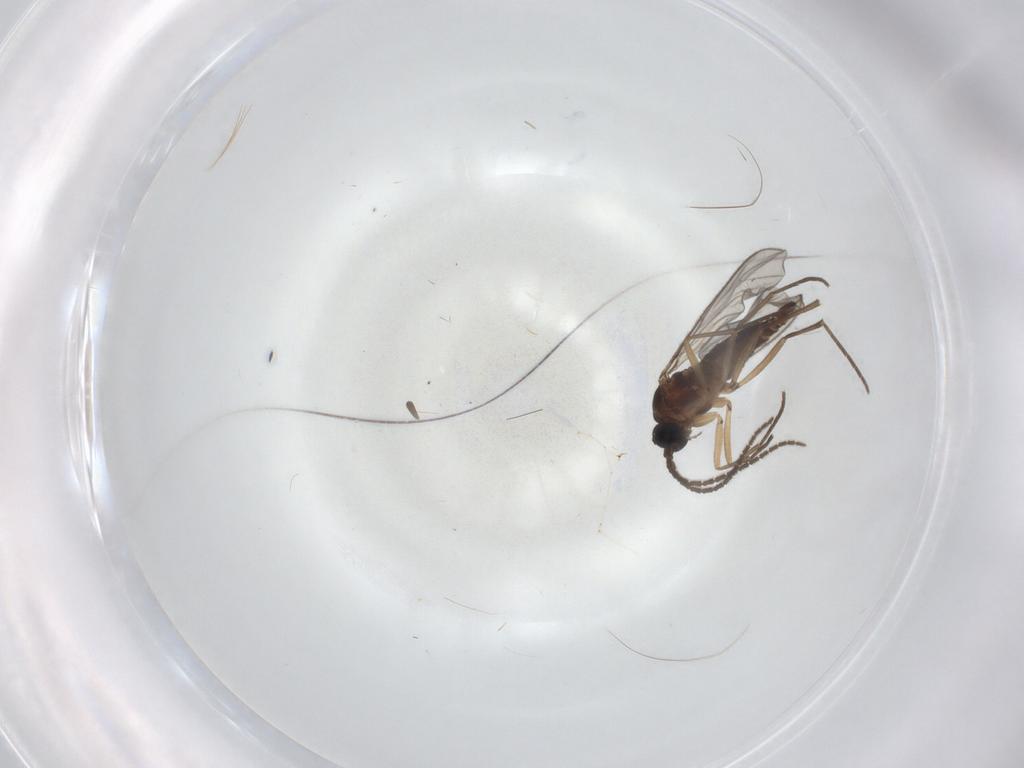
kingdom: Animalia
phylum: Arthropoda
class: Insecta
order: Diptera
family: Sciaridae
